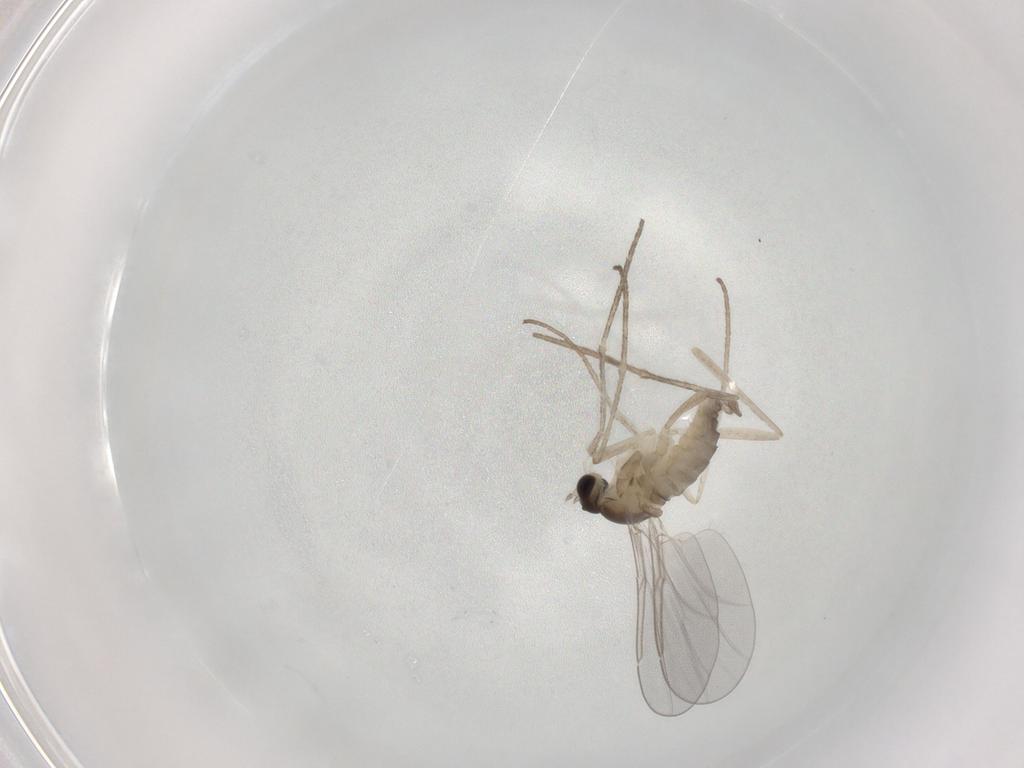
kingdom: Animalia
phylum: Arthropoda
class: Insecta
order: Diptera
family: Cecidomyiidae
